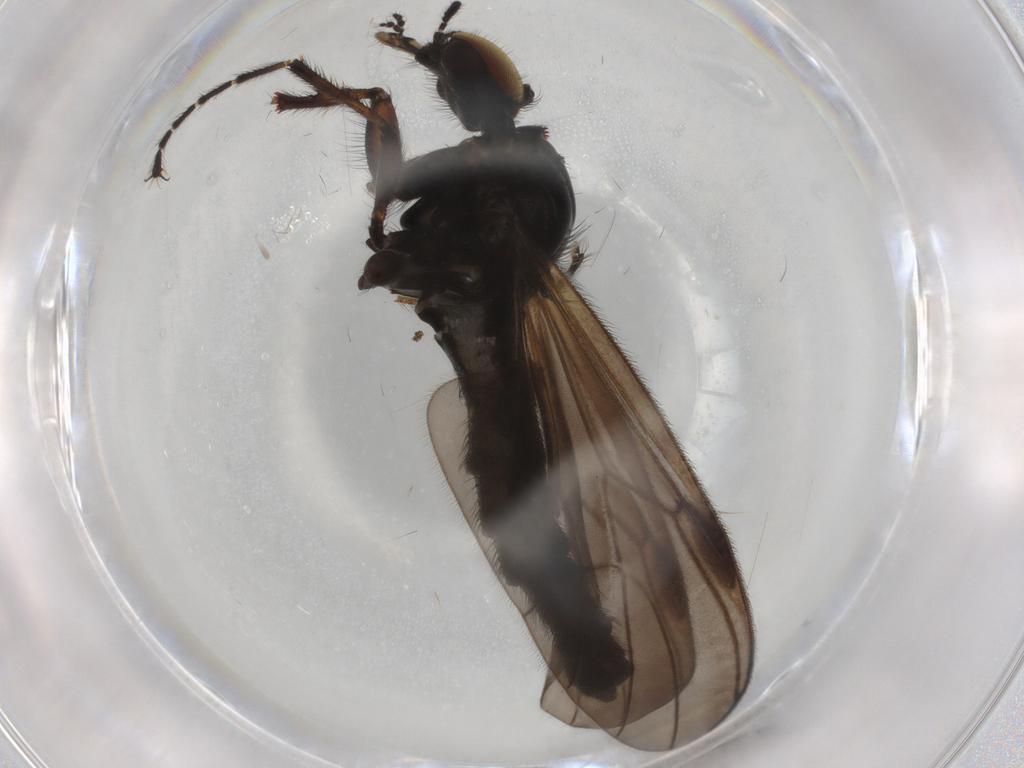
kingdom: Animalia
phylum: Arthropoda
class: Insecta
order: Diptera
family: Bibionidae
